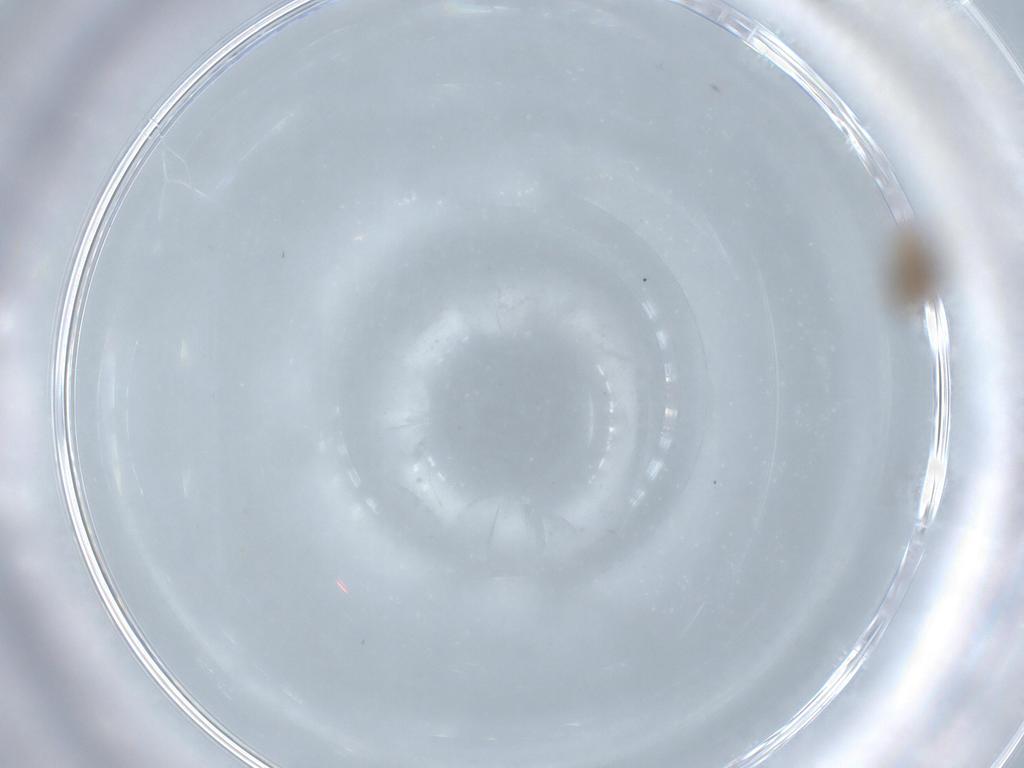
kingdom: Animalia
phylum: Arthropoda
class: Insecta
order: Diptera
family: Cecidomyiidae
